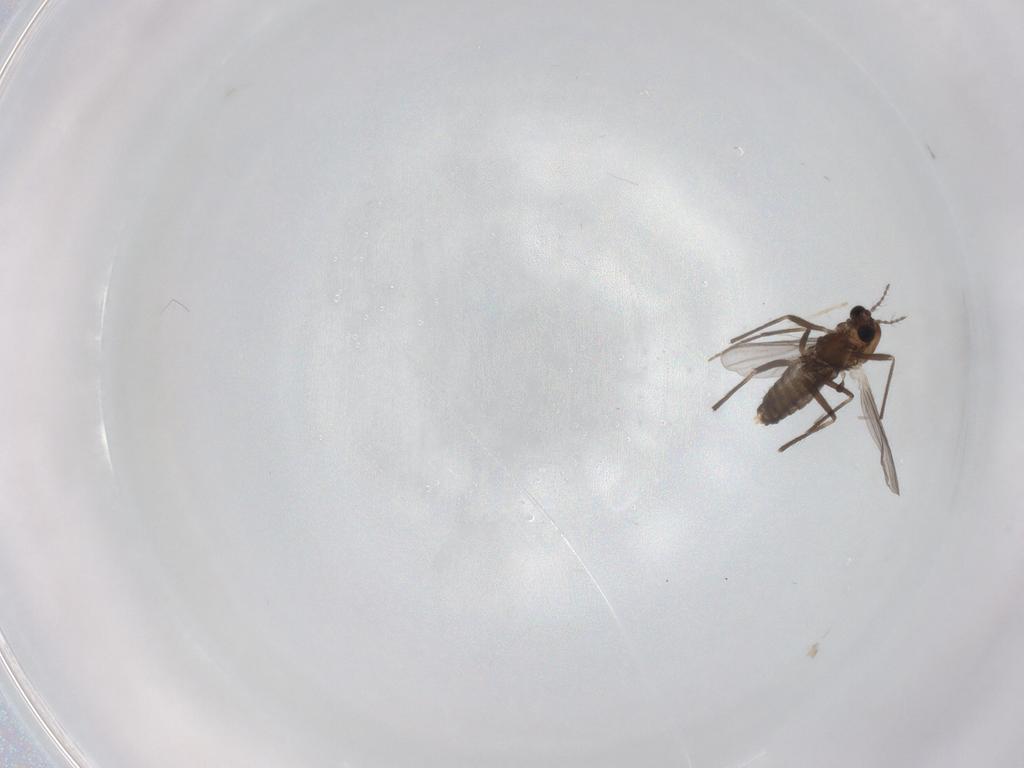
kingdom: Animalia
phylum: Arthropoda
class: Insecta
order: Diptera
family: Chironomidae
